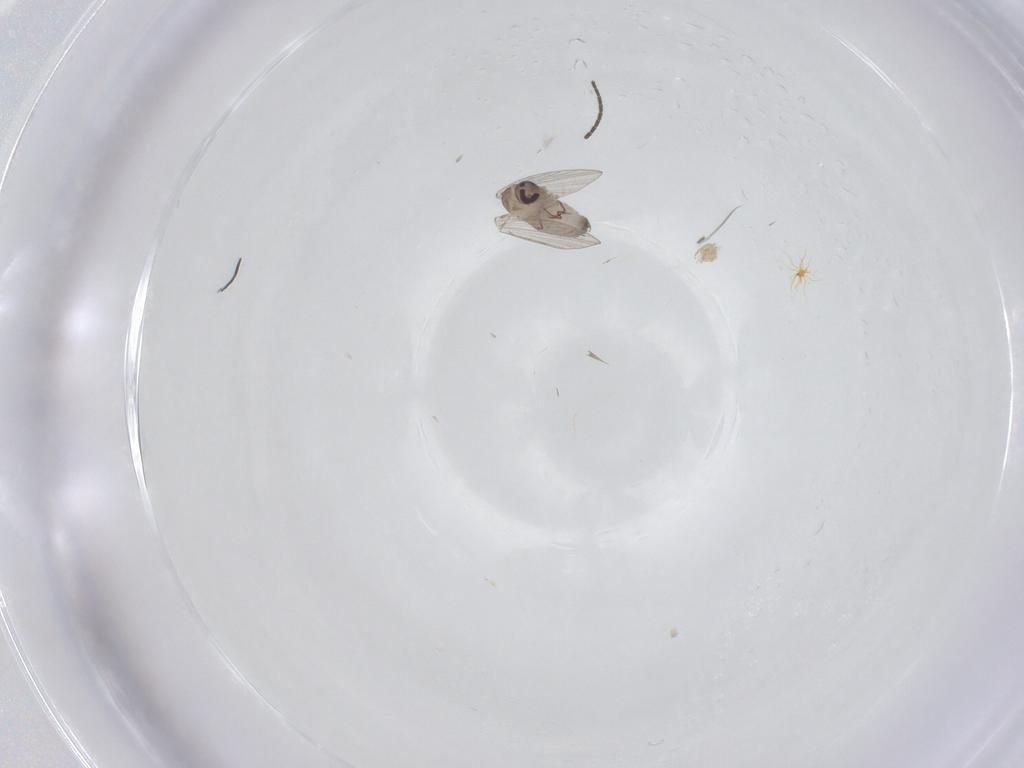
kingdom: Animalia
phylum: Arthropoda
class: Insecta
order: Diptera
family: Psychodidae
